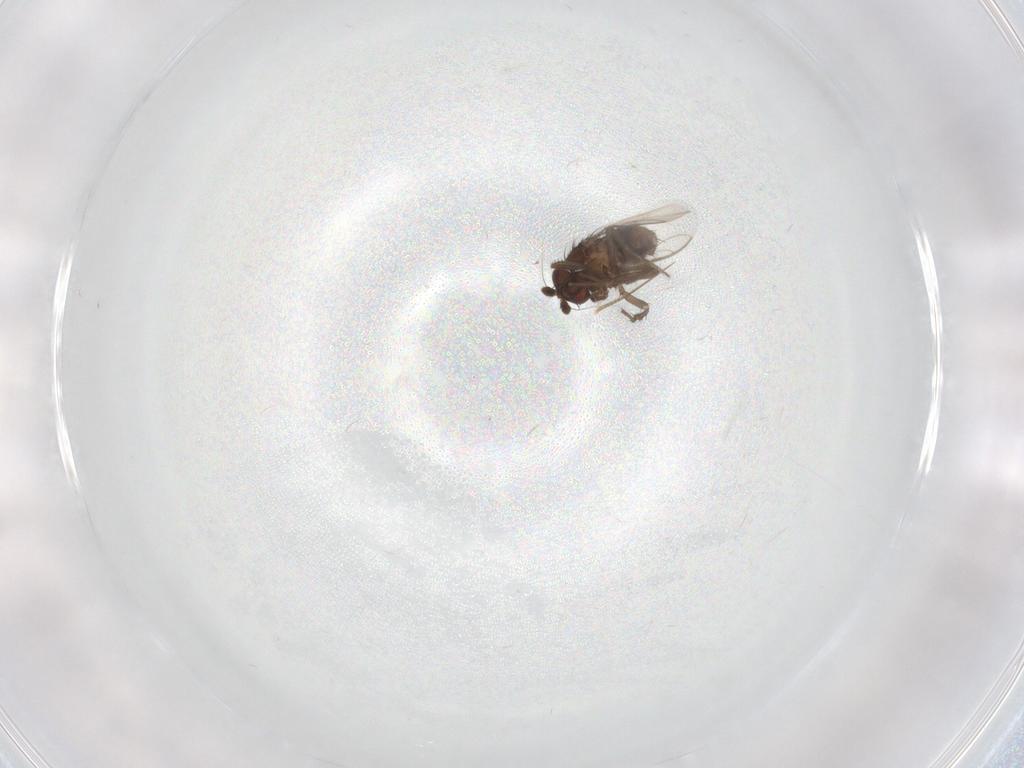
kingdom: Animalia
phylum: Arthropoda
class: Insecta
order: Diptera
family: Sphaeroceridae
